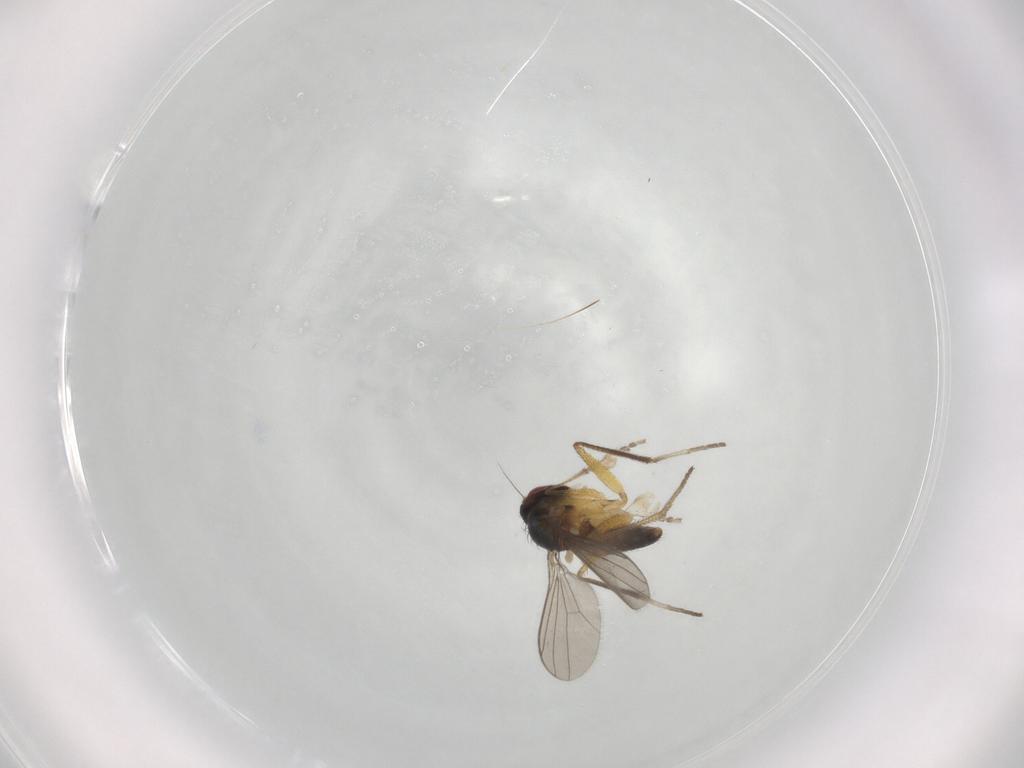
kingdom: Animalia
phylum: Arthropoda
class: Insecta
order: Diptera
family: Dolichopodidae
